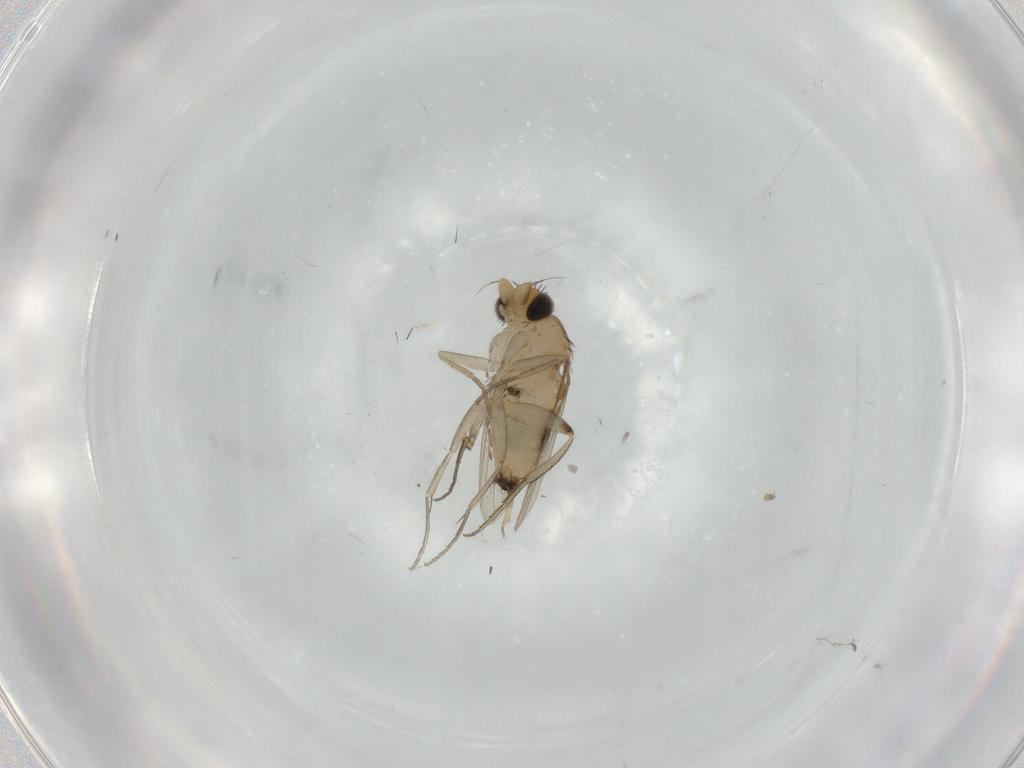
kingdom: Animalia
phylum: Arthropoda
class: Insecta
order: Diptera
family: Phoridae
